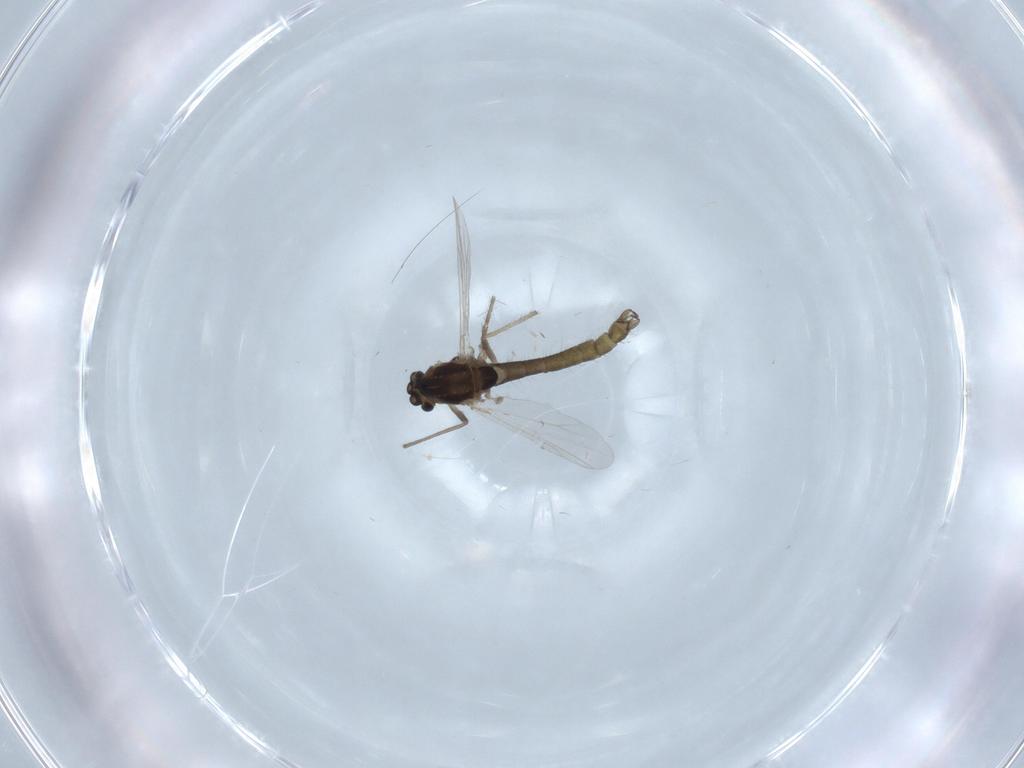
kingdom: Animalia
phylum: Arthropoda
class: Insecta
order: Diptera
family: Chironomidae
